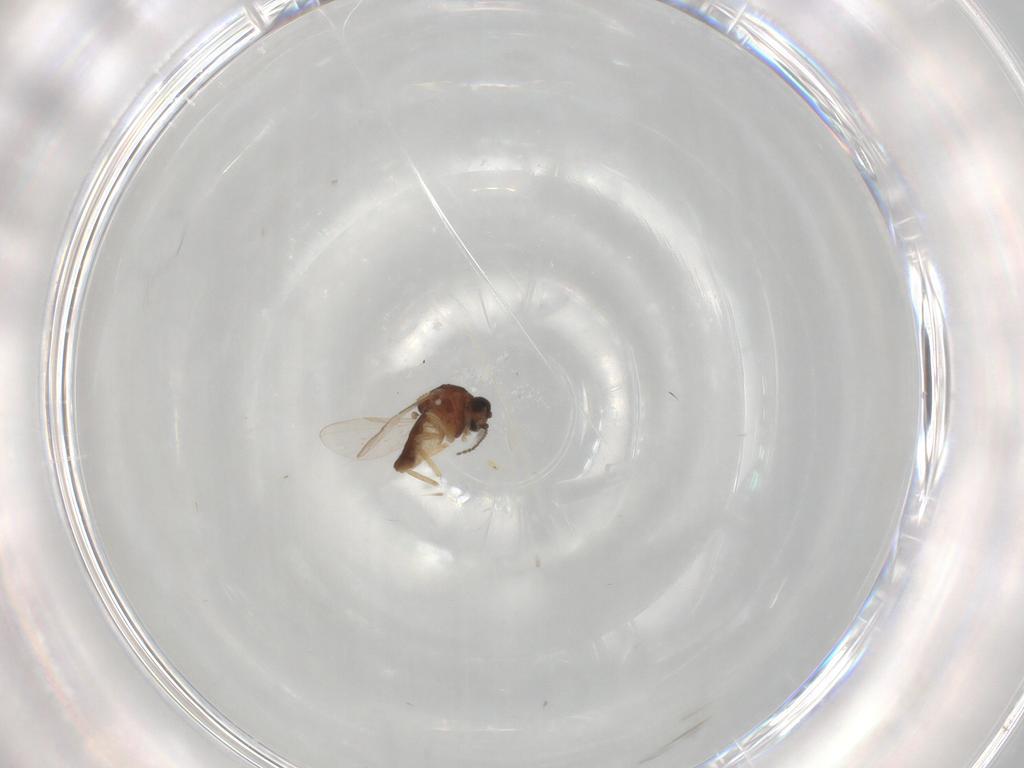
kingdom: Animalia
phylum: Arthropoda
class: Insecta
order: Diptera
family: Ceratopogonidae
